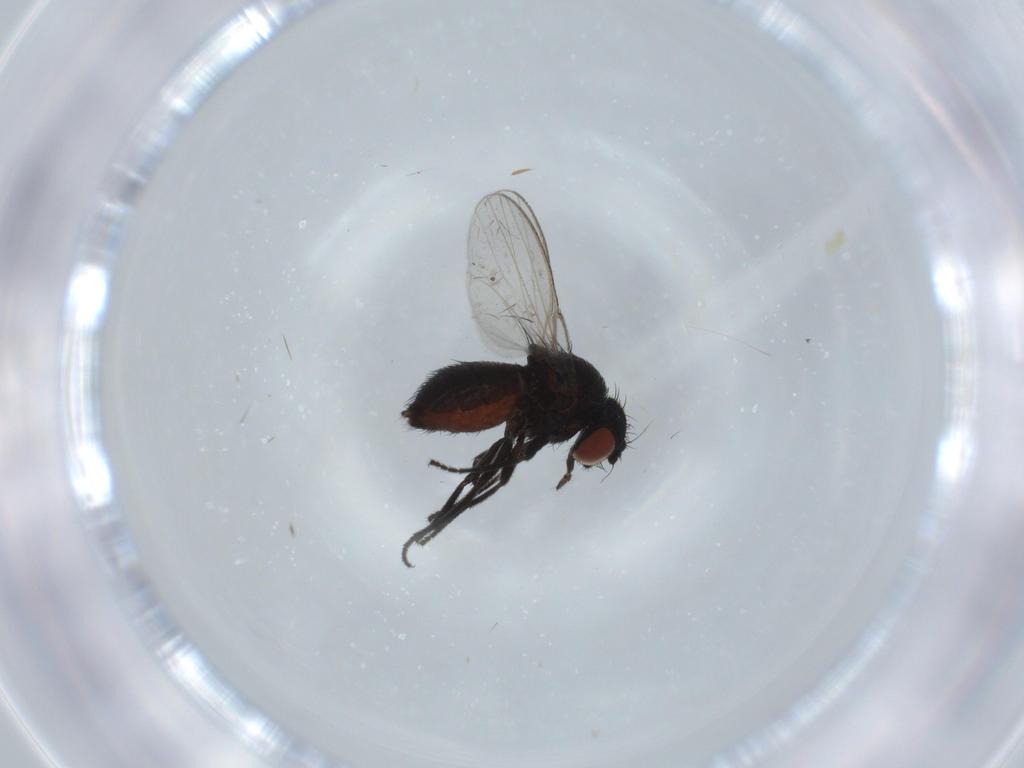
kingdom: Animalia
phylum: Arthropoda
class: Insecta
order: Diptera
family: Milichiidae
